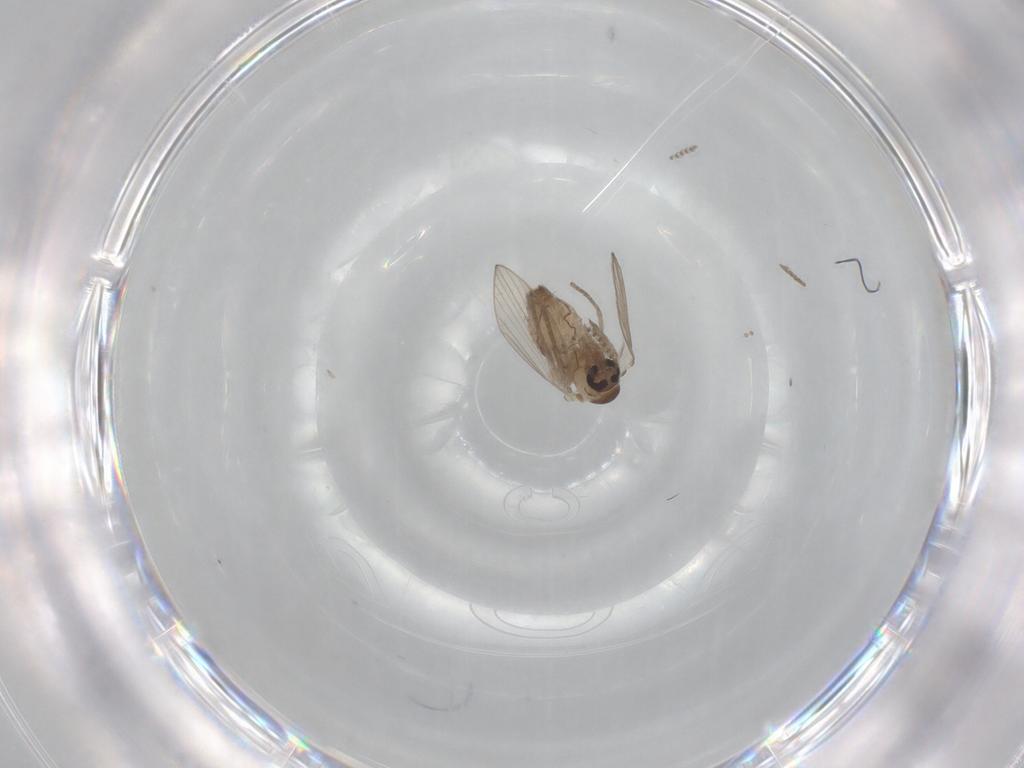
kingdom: Animalia
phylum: Arthropoda
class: Insecta
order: Diptera
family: Psychodidae
